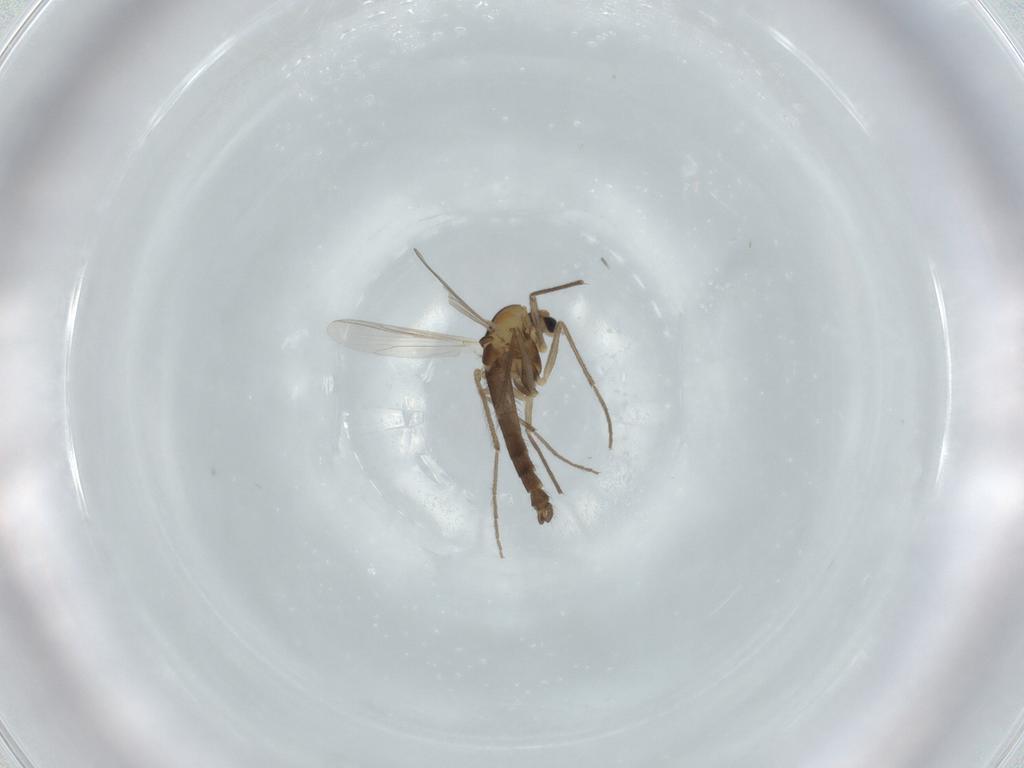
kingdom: Animalia
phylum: Arthropoda
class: Insecta
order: Diptera
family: Chironomidae
